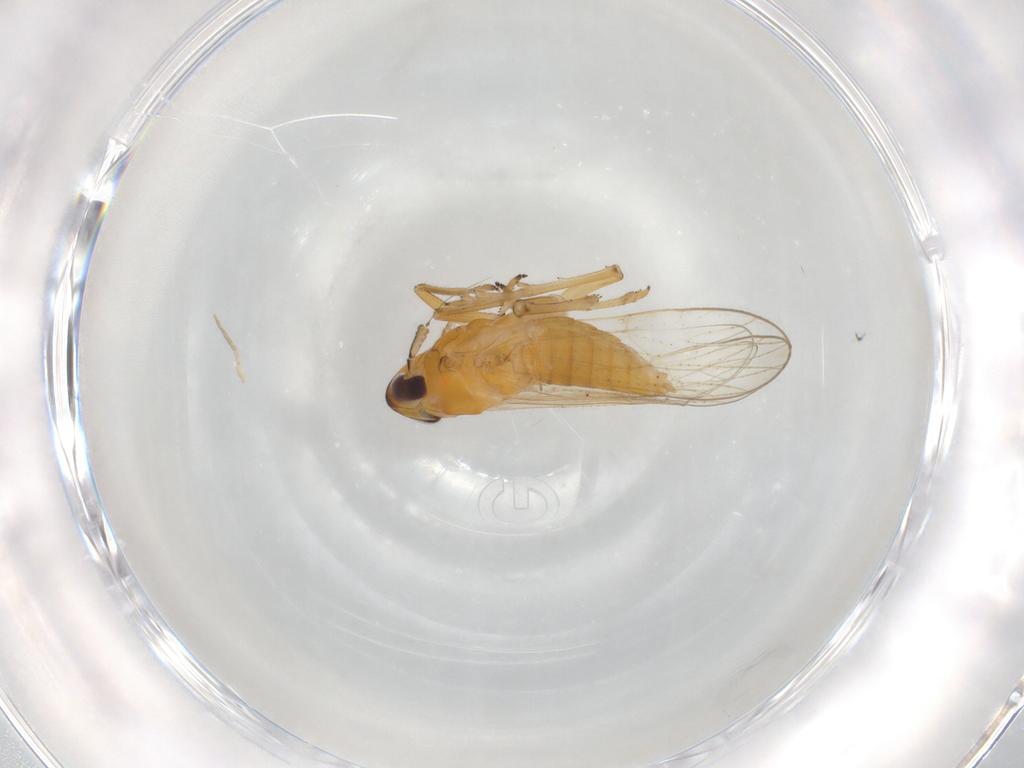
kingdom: Animalia
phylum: Arthropoda
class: Insecta
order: Hemiptera
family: Delphacidae
